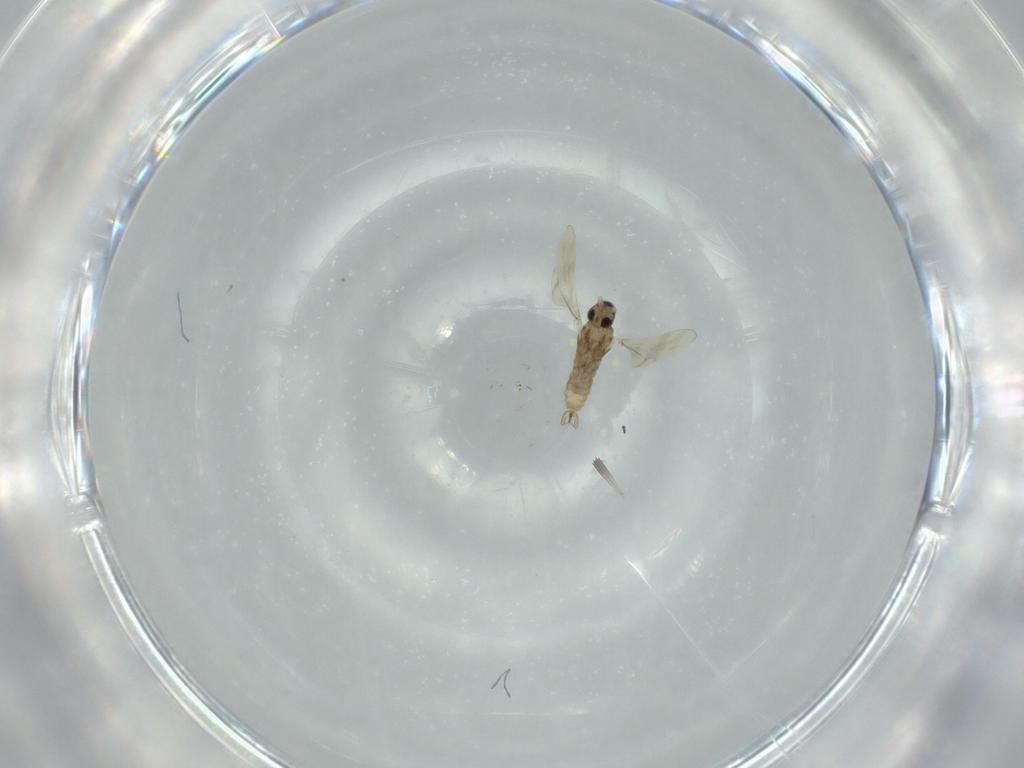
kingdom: Animalia
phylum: Arthropoda
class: Insecta
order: Diptera
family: Cecidomyiidae
